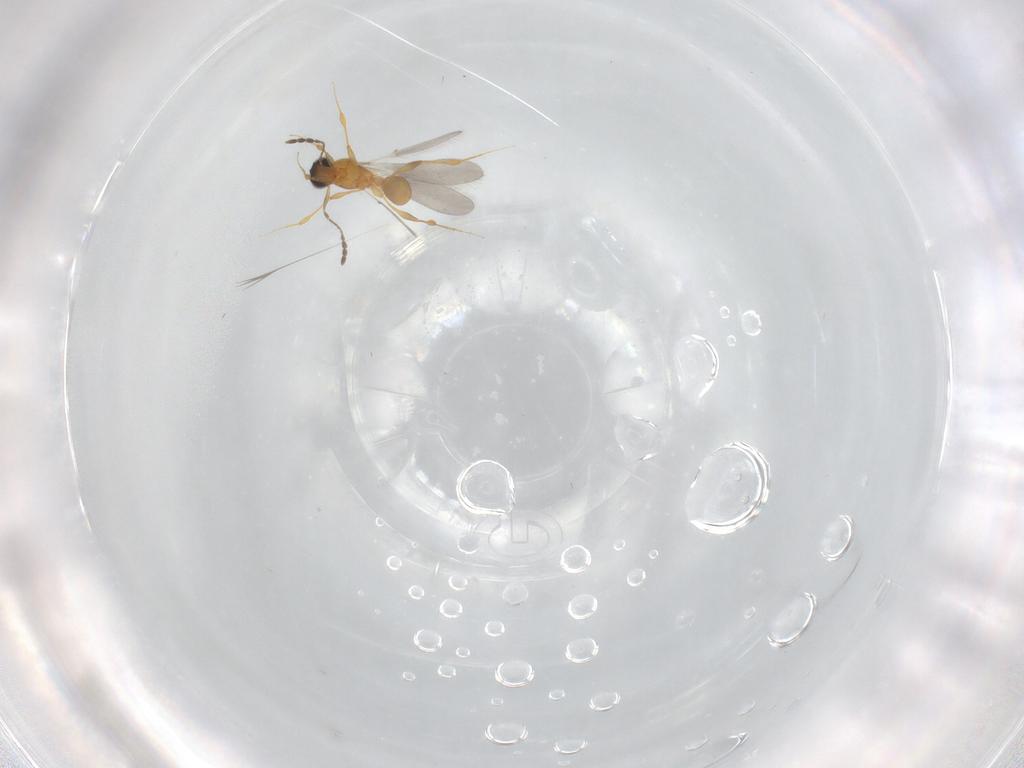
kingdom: Animalia
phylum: Arthropoda
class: Insecta
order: Hymenoptera
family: Platygastridae
